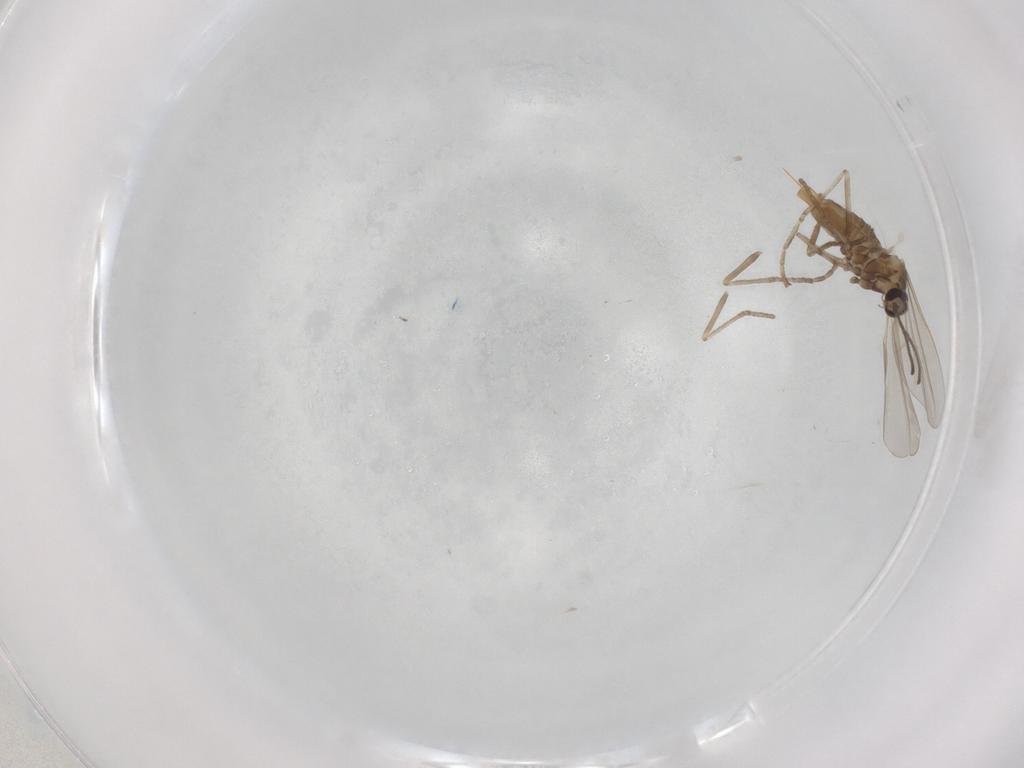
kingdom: Animalia
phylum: Arthropoda
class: Insecta
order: Diptera
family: Cecidomyiidae
